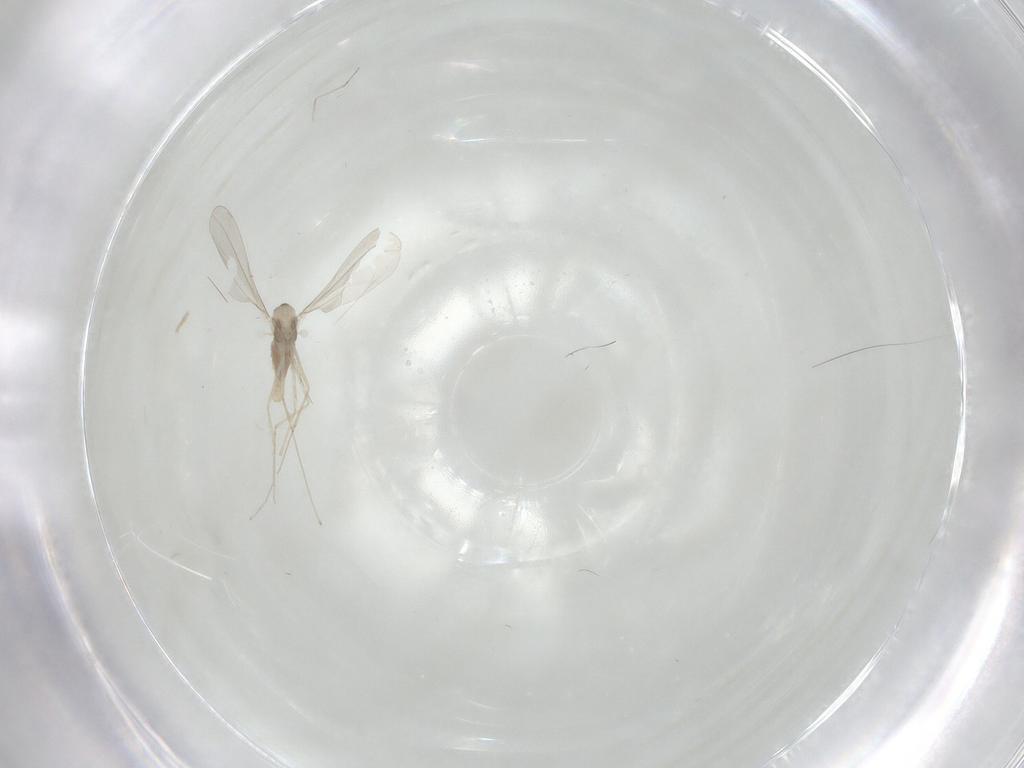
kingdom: Animalia
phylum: Arthropoda
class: Insecta
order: Diptera
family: Cecidomyiidae
